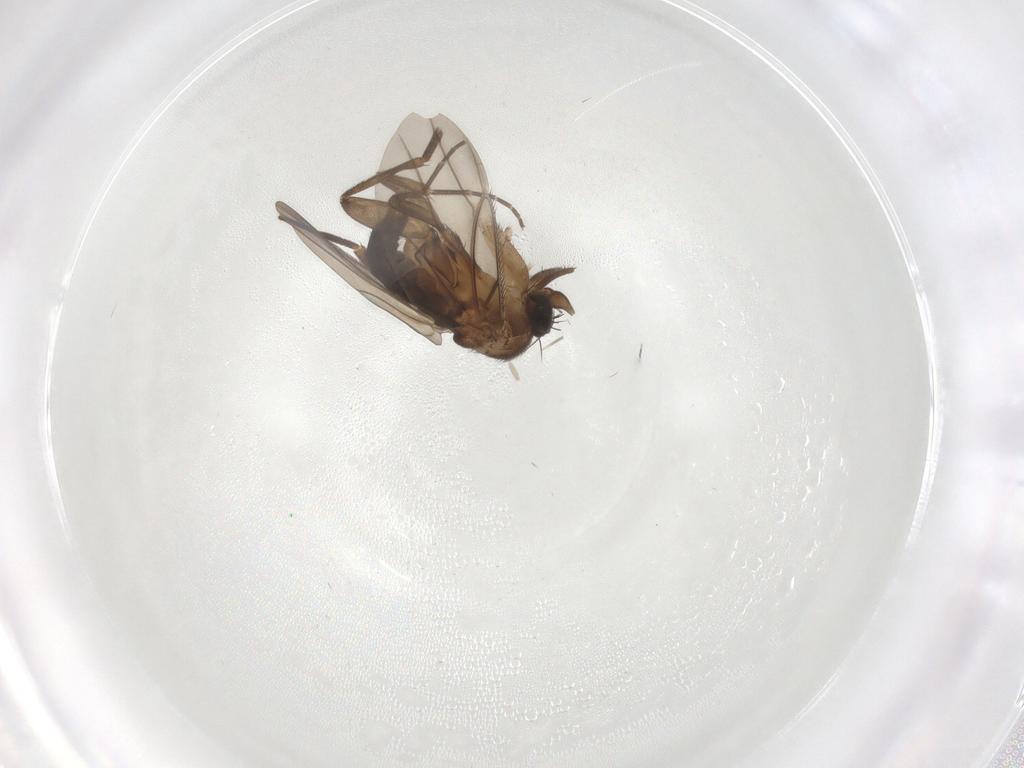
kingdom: Animalia
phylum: Arthropoda
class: Insecta
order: Diptera
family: Phoridae
